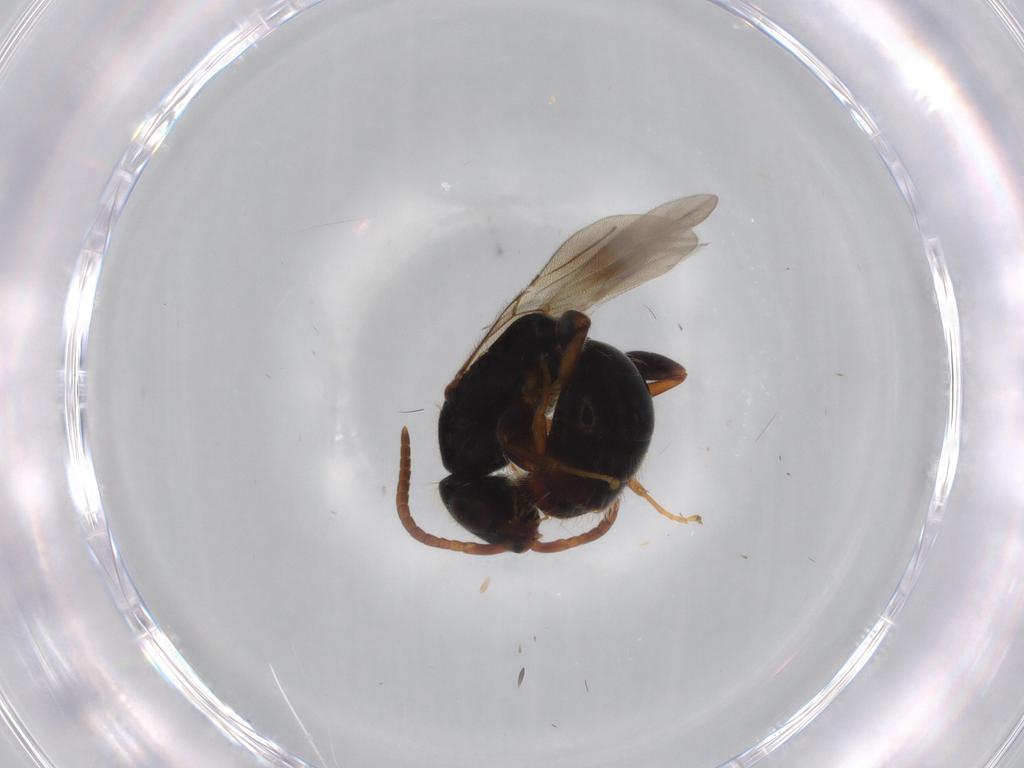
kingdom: Animalia
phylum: Arthropoda
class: Insecta
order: Hymenoptera
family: Bethylidae
